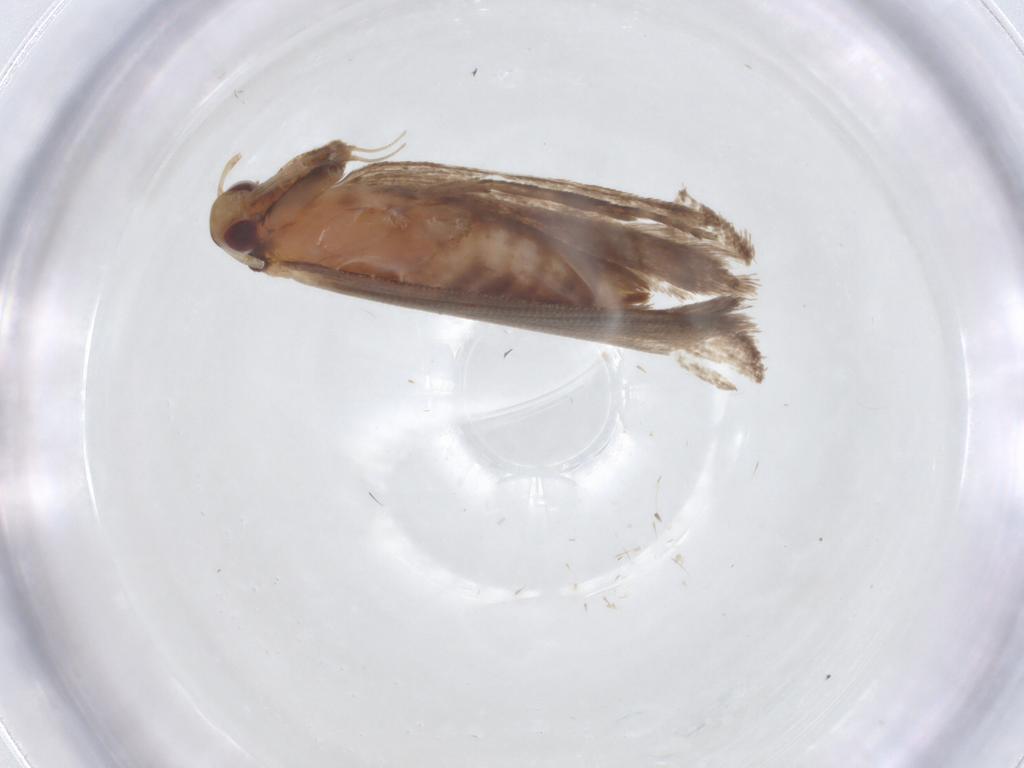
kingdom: Animalia
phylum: Arthropoda
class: Insecta
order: Lepidoptera
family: Gelechiidae
